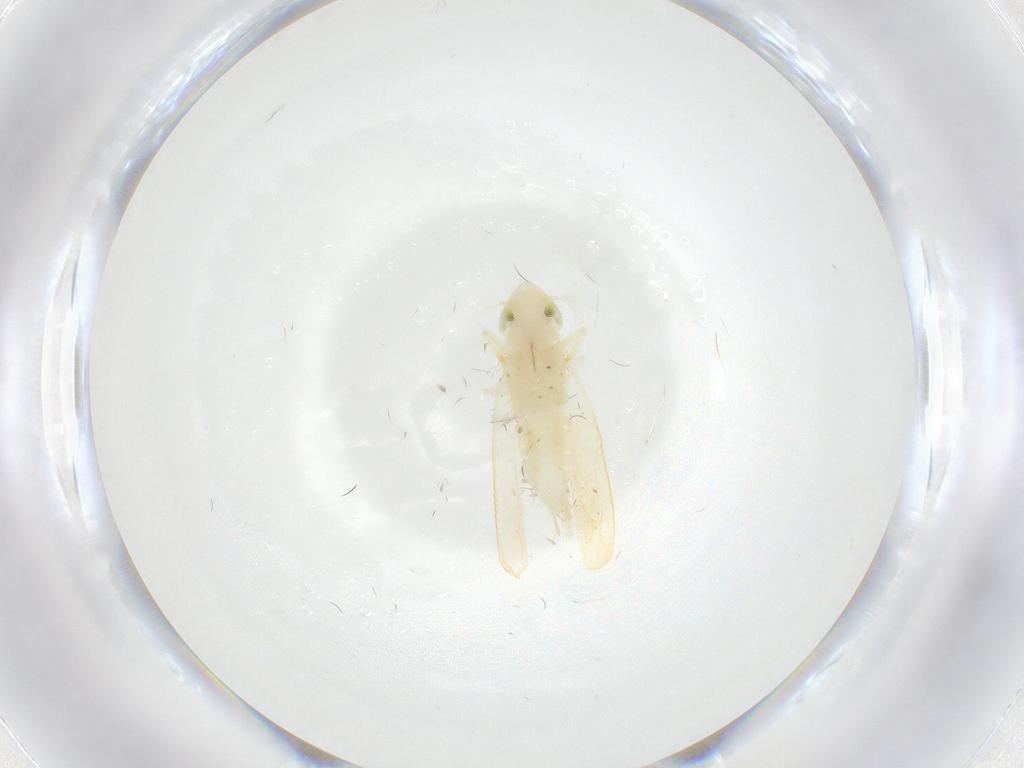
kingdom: Animalia
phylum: Arthropoda
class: Insecta
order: Hemiptera
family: Cicadellidae
